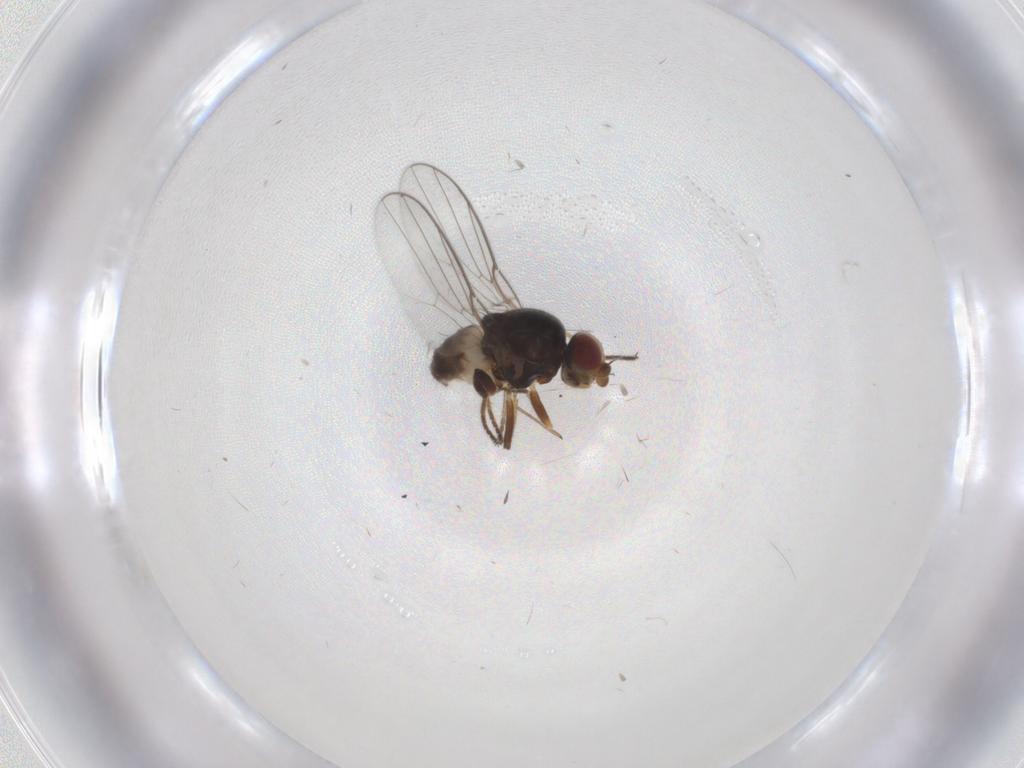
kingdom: Animalia
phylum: Arthropoda
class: Insecta
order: Diptera
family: Chloropidae
